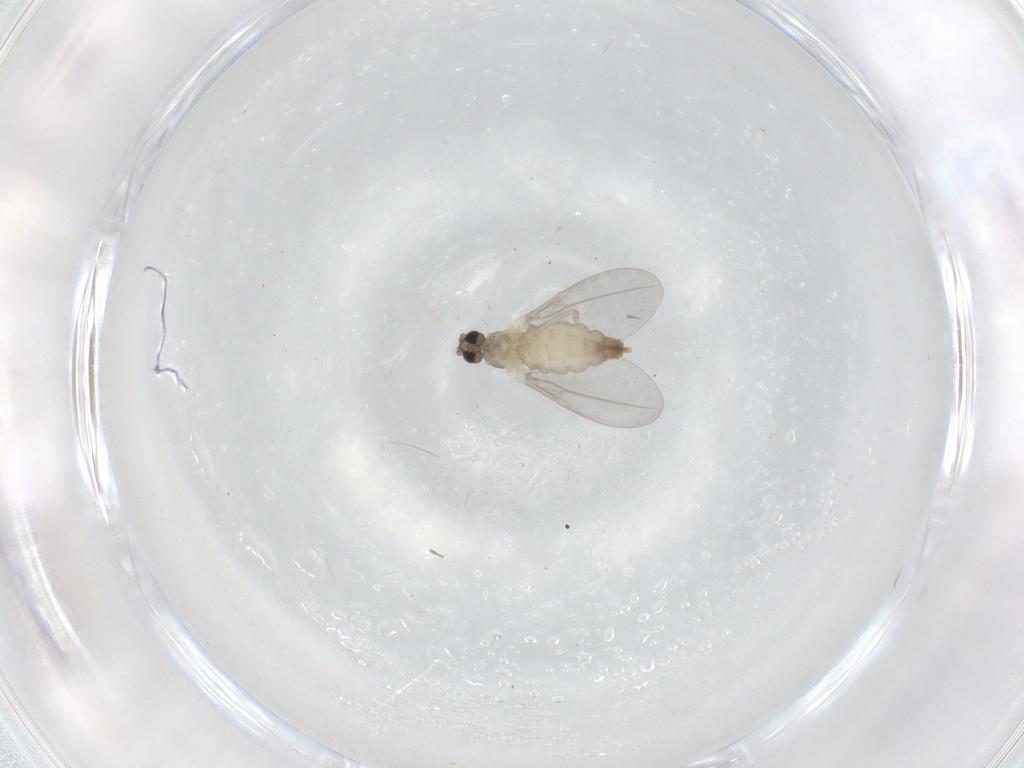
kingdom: Animalia
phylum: Arthropoda
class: Insecta
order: Diptera
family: Cecidomyiidae
